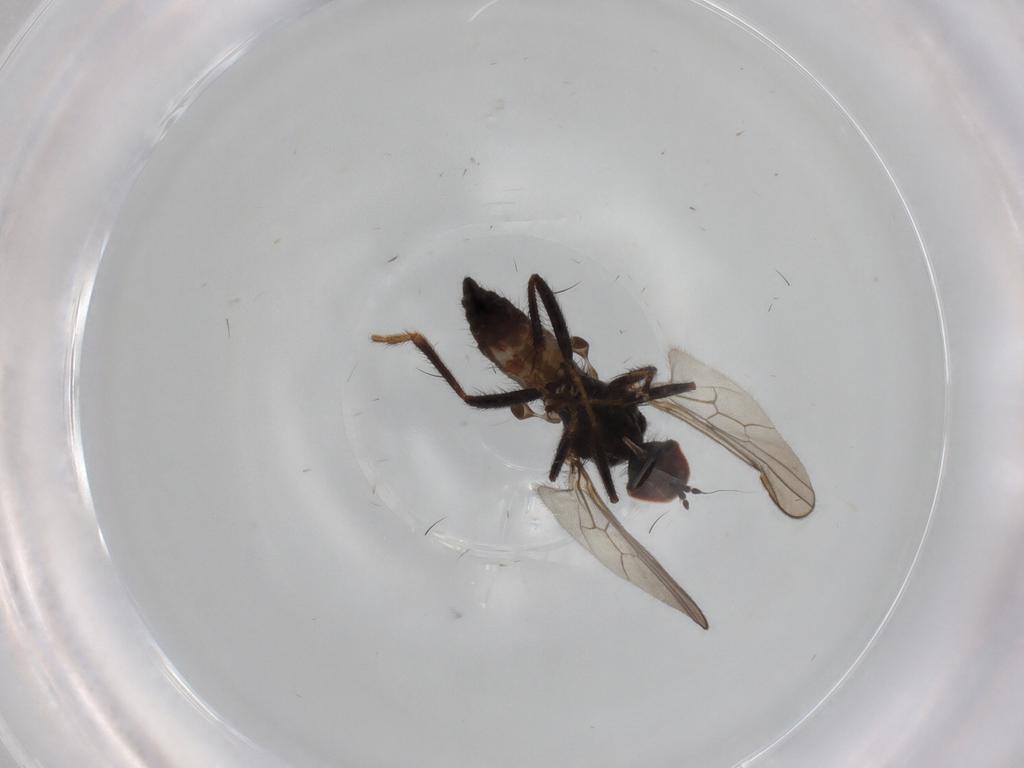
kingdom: Animalia
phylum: Arthropoda
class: Insecta
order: Diptera
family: Hybotidae
